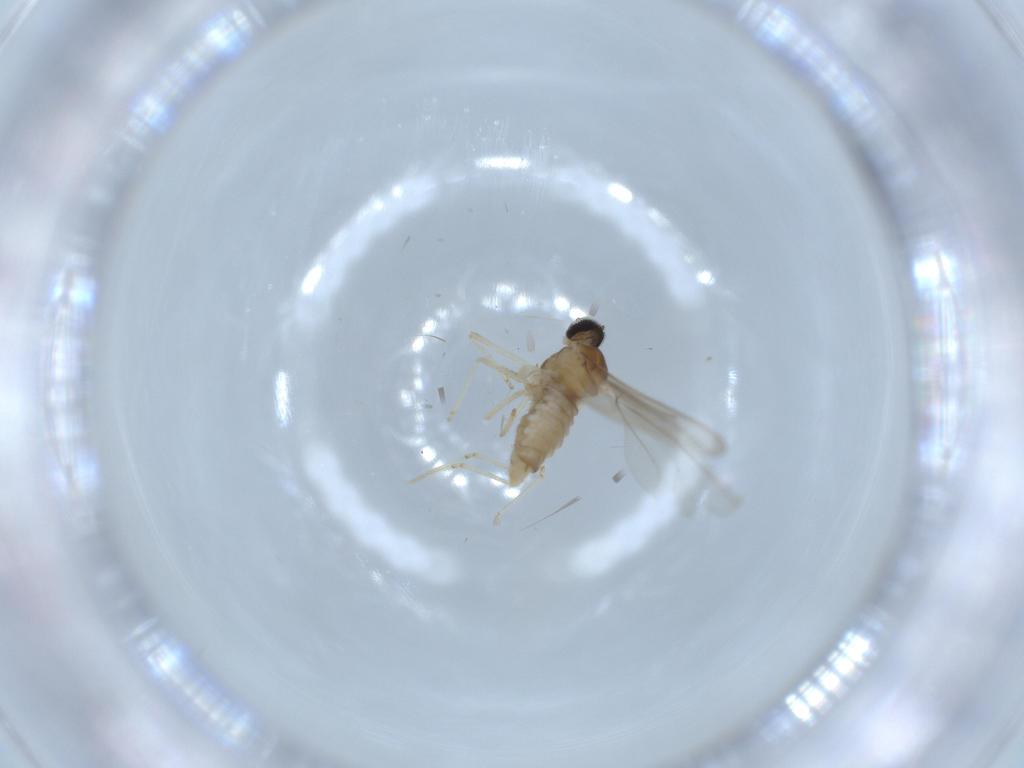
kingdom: Animalia
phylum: Arthropoda
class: Insecta
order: Diptera
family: Cecidomyiidae
